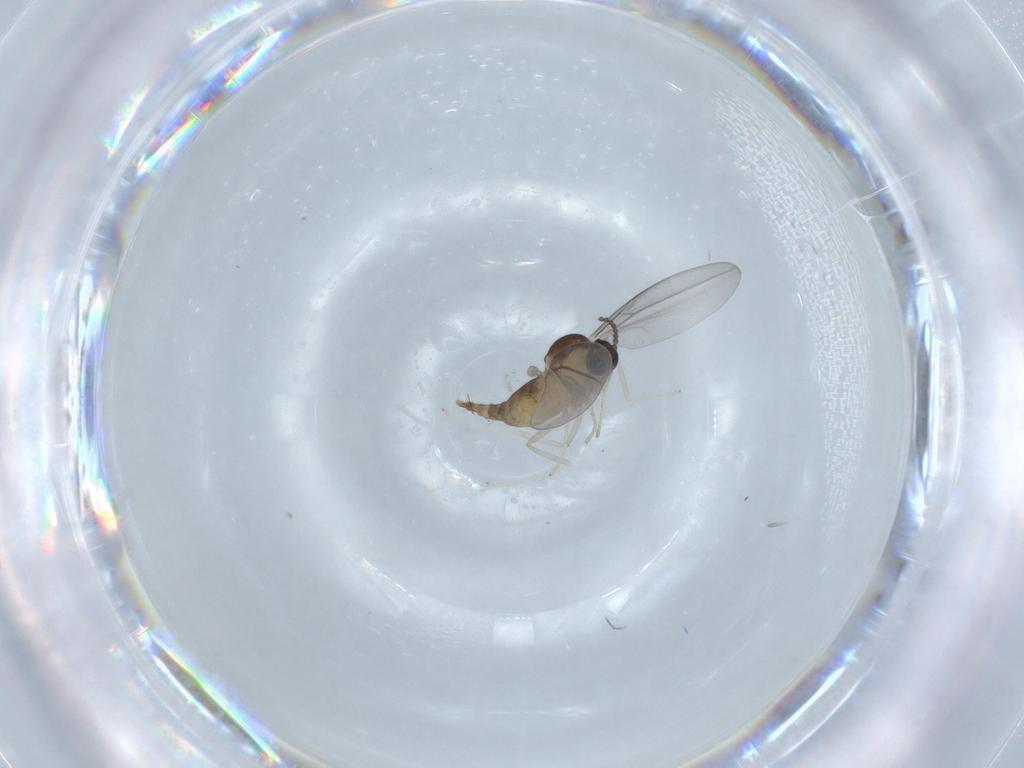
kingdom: Animalia
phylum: Arthropoda
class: Insecta
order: Diptera
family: Cecidomyiidae
